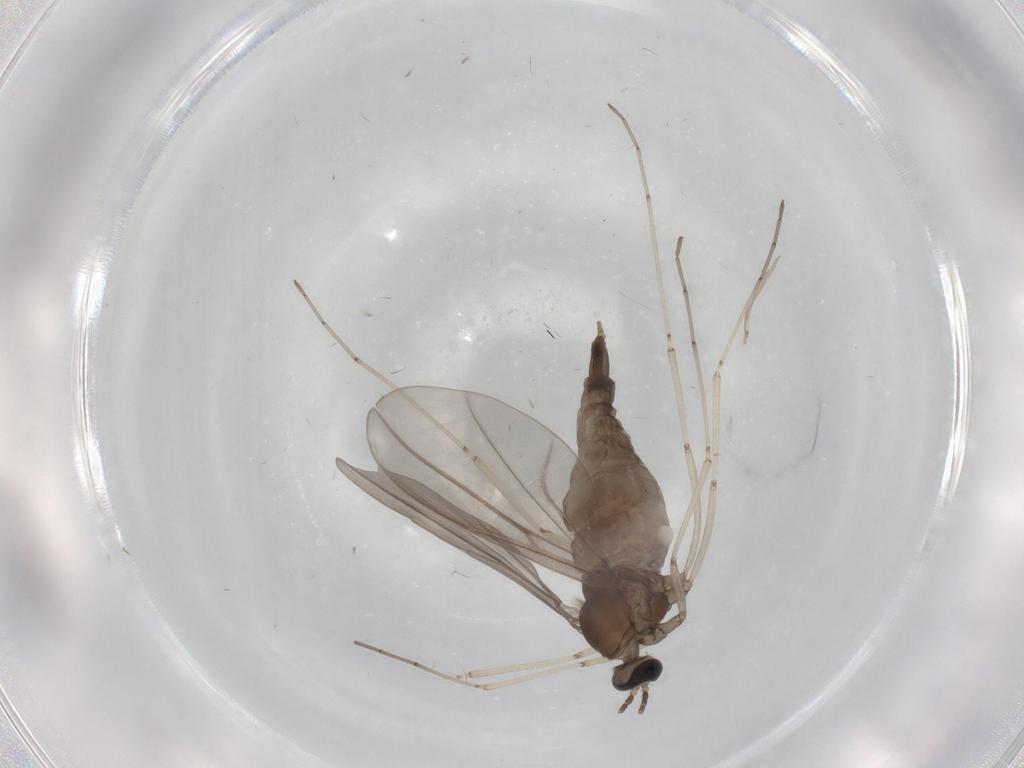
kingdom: Animalia
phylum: Arthropoda
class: Insecta
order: Diptera
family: Cecidomyiidae
